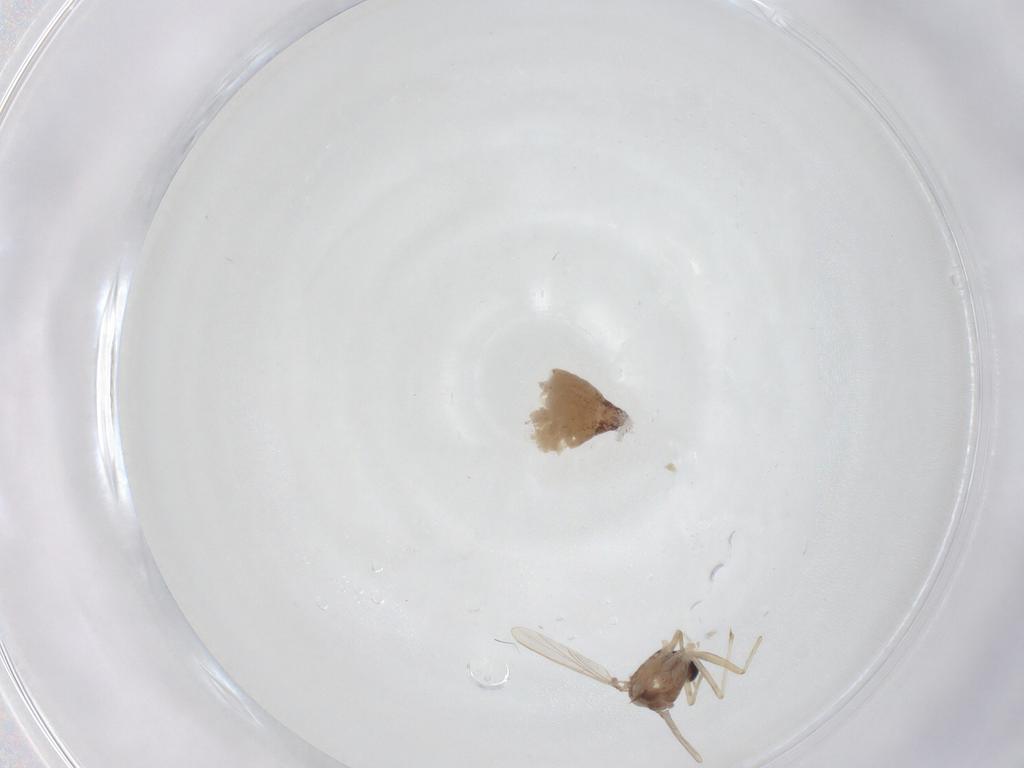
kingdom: Animalia
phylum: Arthropoda
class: Insecta
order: Diptera
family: Chironomidae
